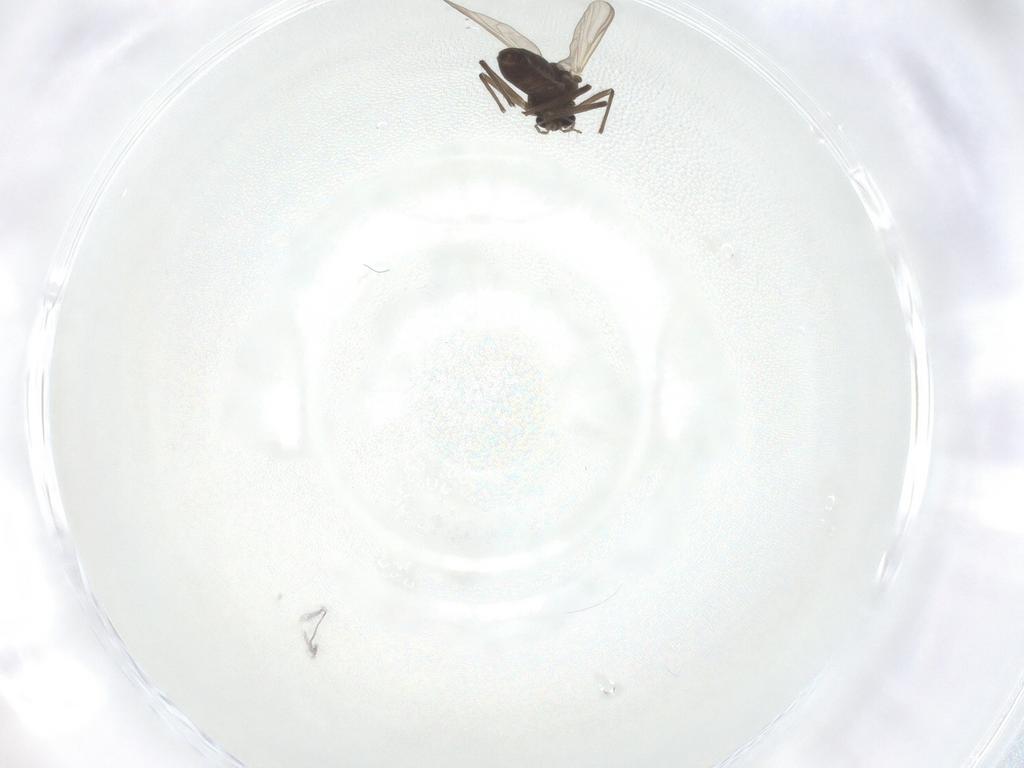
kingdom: Animalia
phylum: Arthropoda
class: Insecta
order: Diptera
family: Chironomidae
